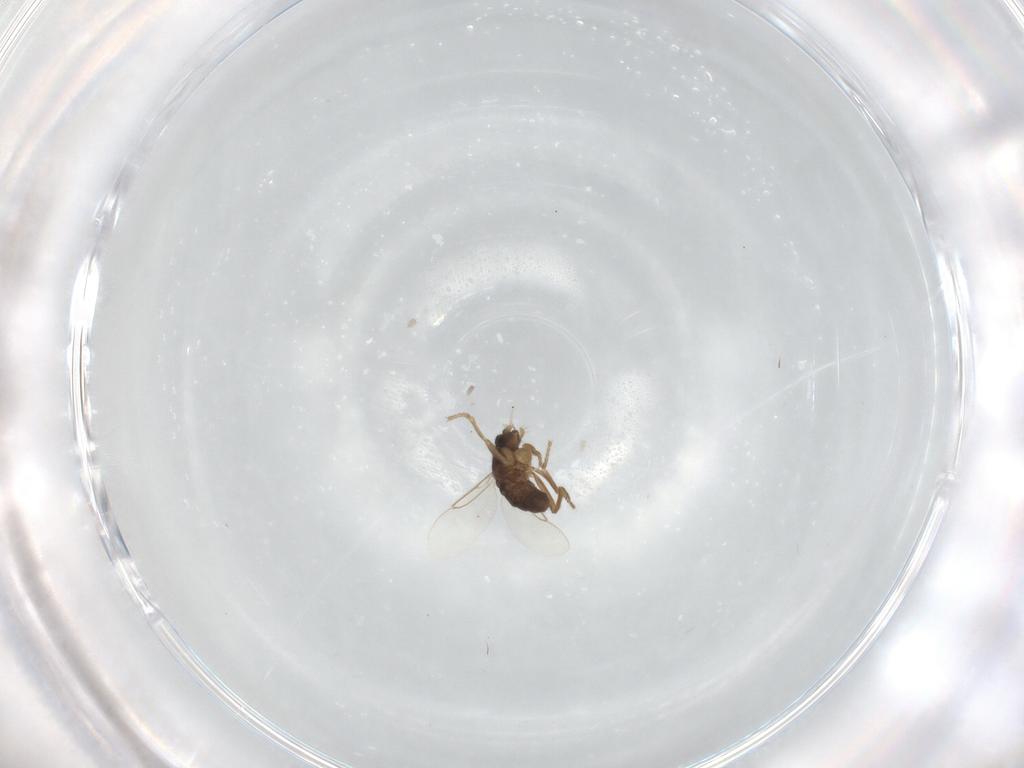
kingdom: Animalia
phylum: Arthropoda
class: Insecta
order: Diptera
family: Phoridae
